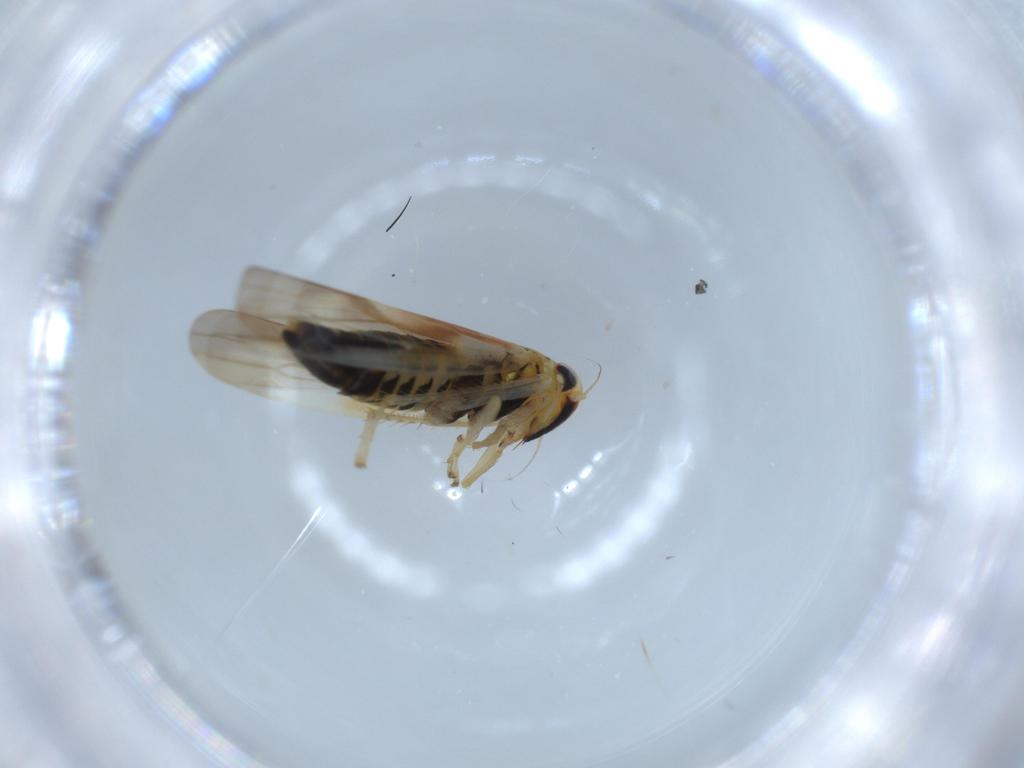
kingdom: Animalia
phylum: Arthropoda
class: Insecta
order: Hemiptera
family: Cicadellidae
